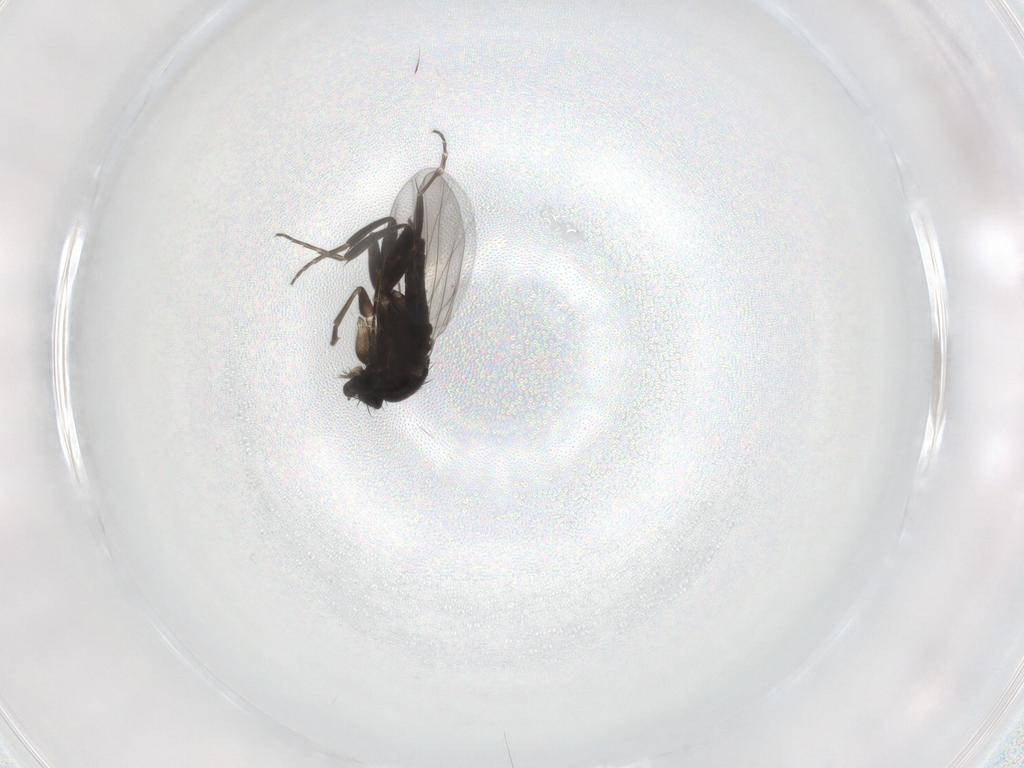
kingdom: Animalia
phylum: Arthropoda
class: Insecta
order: Diptera
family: Phoridae
